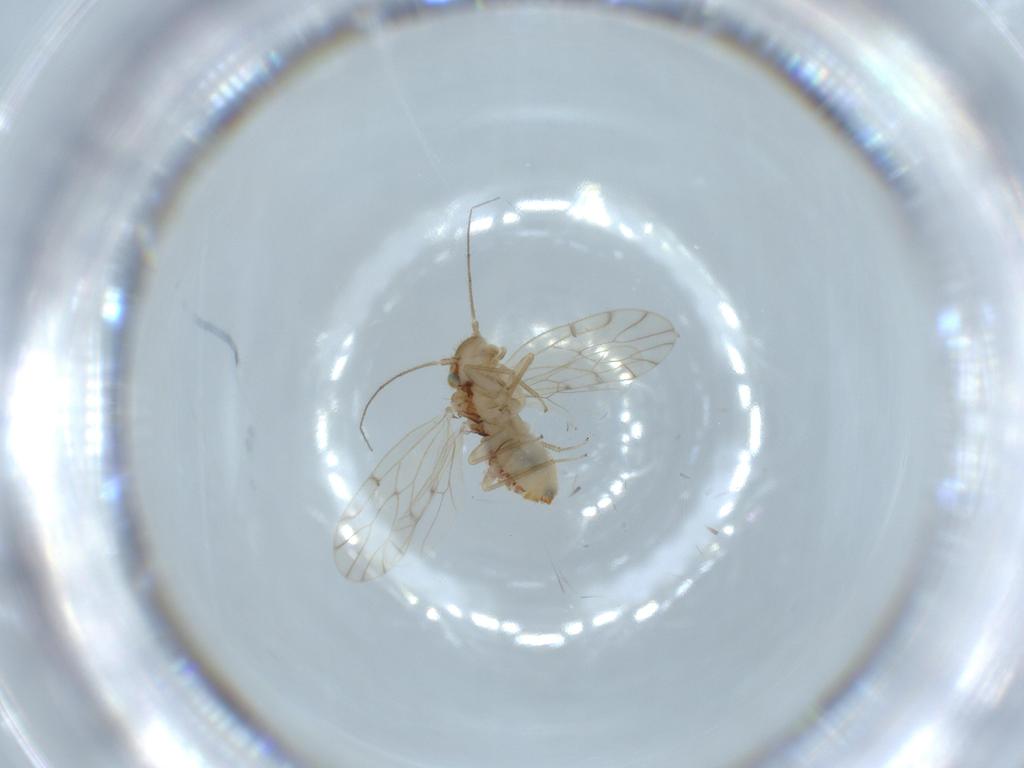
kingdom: Animalia
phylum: Arthropoda
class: Insecta
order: Psocodea
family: Ectopsocidae
